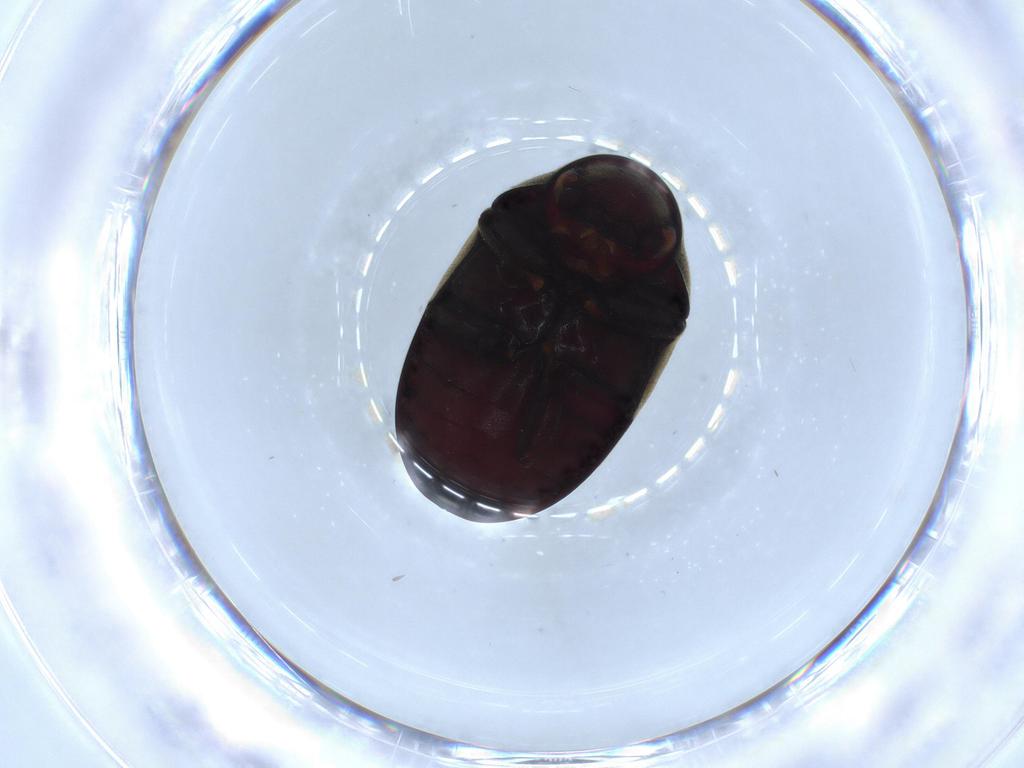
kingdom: Animalia
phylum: Arthropoda
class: Insecta
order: Coleoptera
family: Ptinidae
